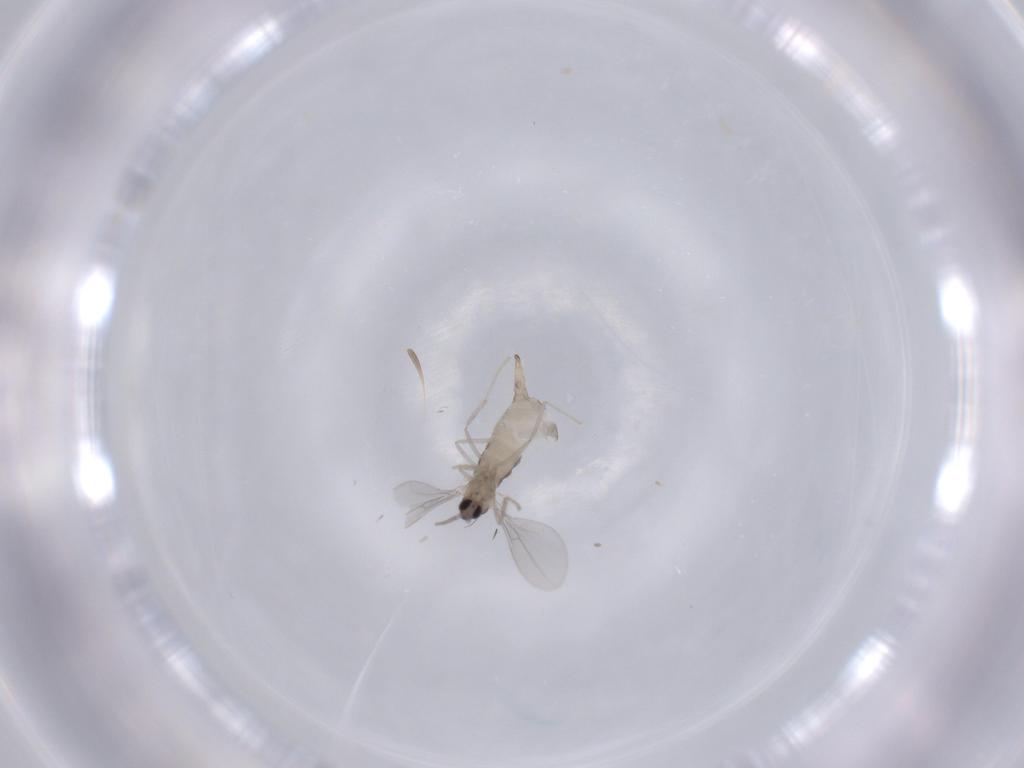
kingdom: Animalia
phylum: Arthropoda
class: Insecta
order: Diptera
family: Cecidomyiidae
